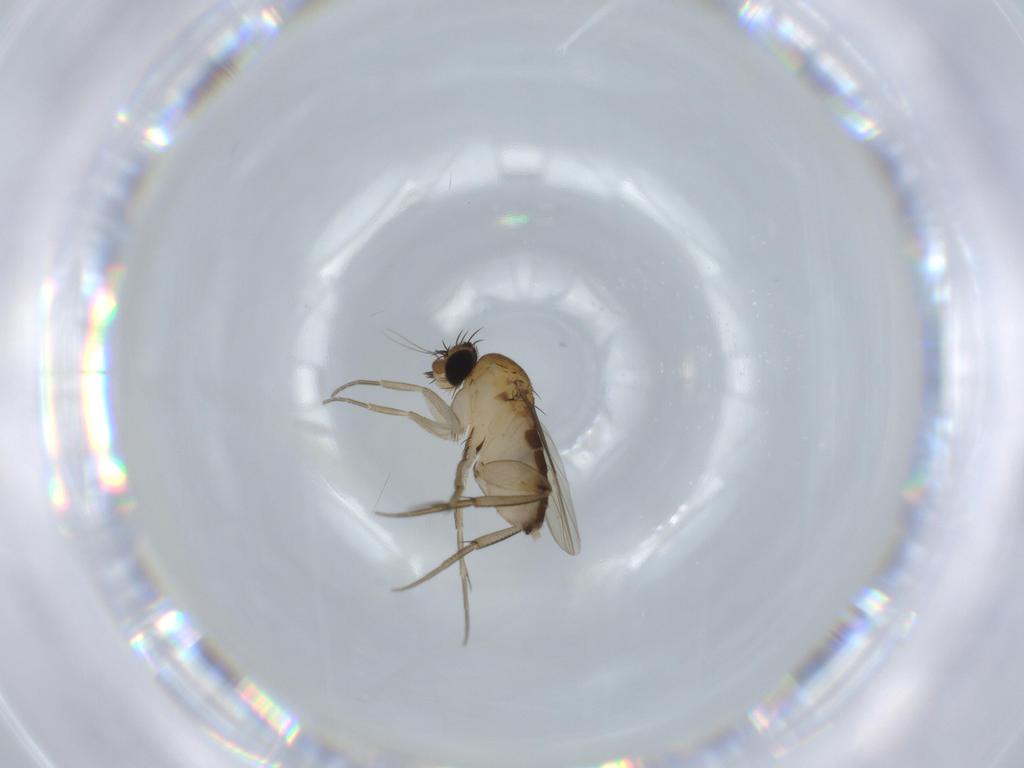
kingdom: Animalia
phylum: Arthropoda
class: Insecta
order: Diptera
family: Phoridae
